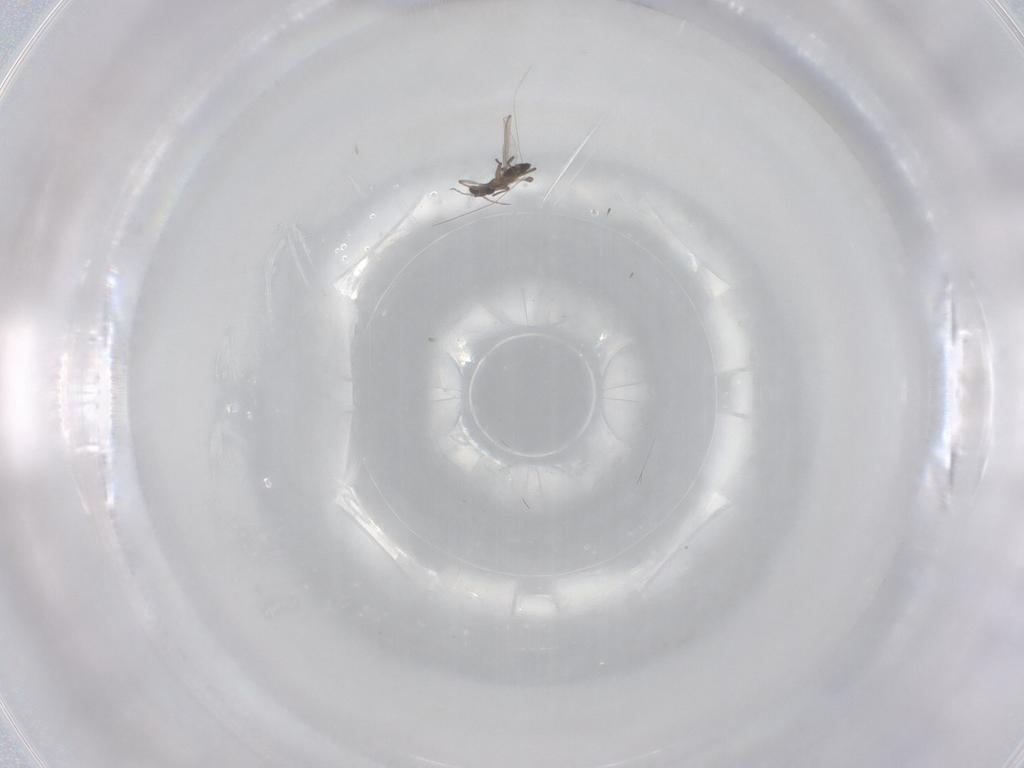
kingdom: Animalia
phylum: Arthropoda
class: Insecta
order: Diptera
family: Chironomidae
